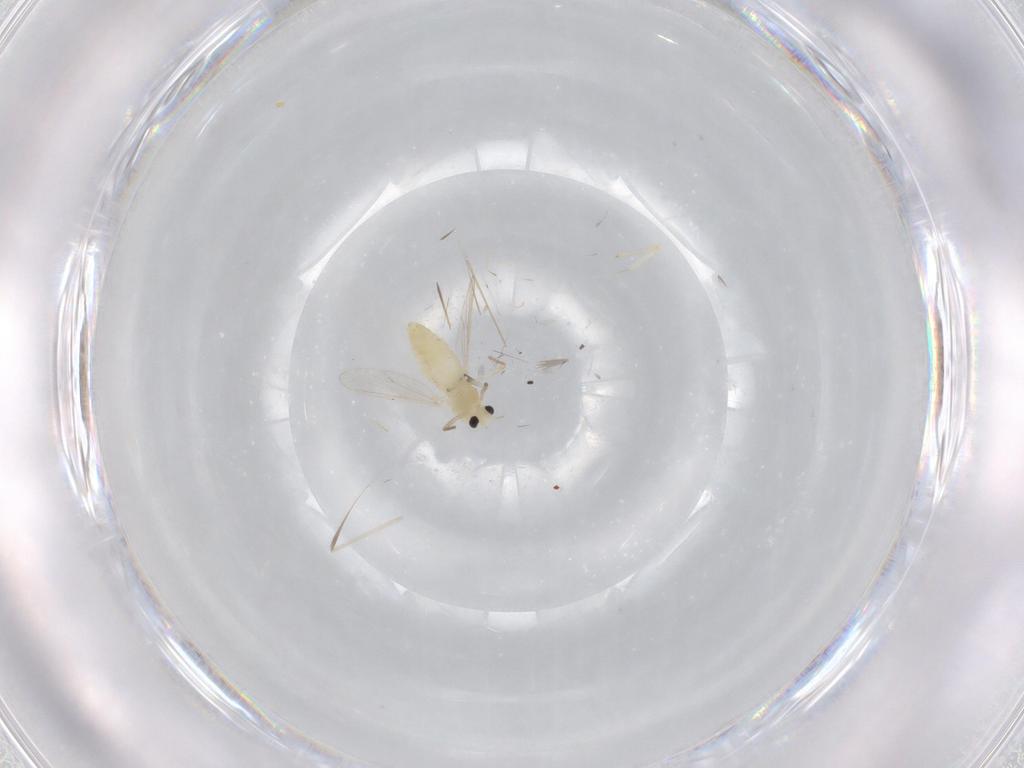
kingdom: Animalia
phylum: Arthropoda
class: Insecta
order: Diptera
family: Chironomidae
